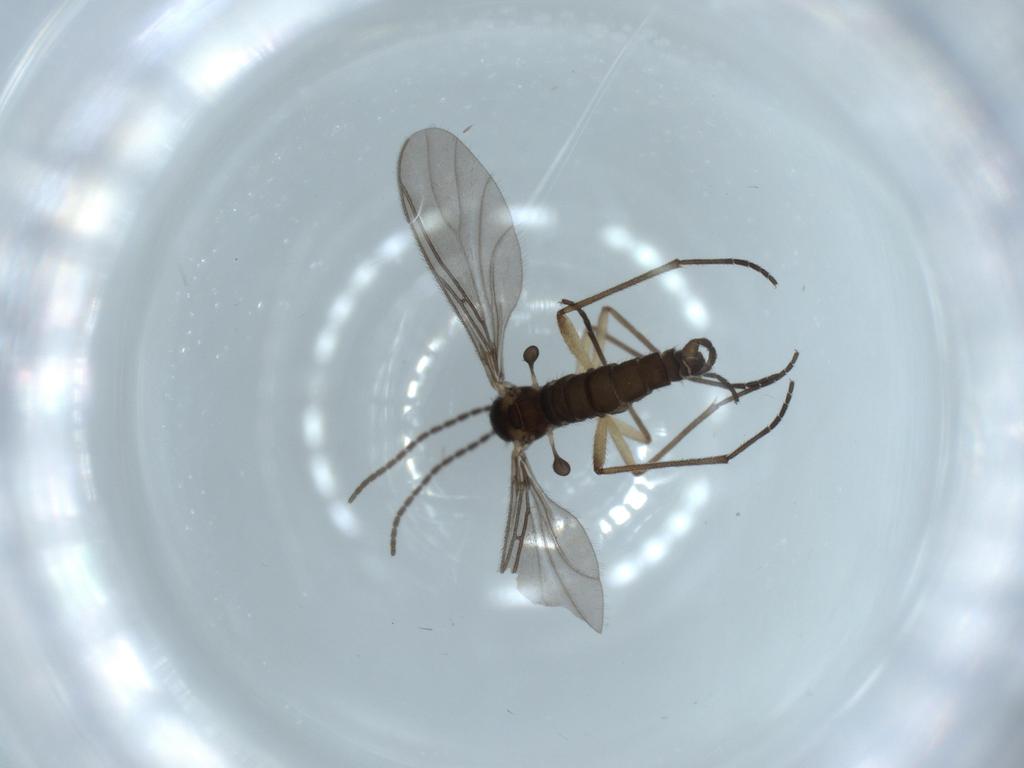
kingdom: Animalia
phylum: Arthropoda
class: Insecta
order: Diptera
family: Sciaridae
